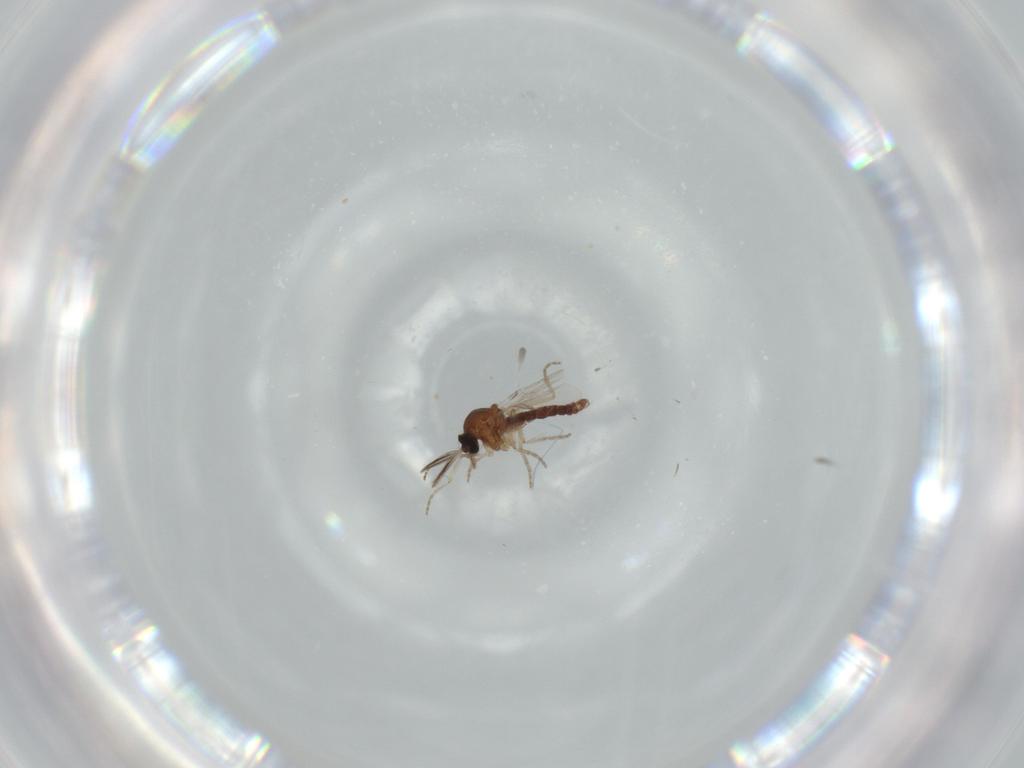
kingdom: Animalia
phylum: Arthropoda
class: Insecta
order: Diptera
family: Ceratopogonidae
